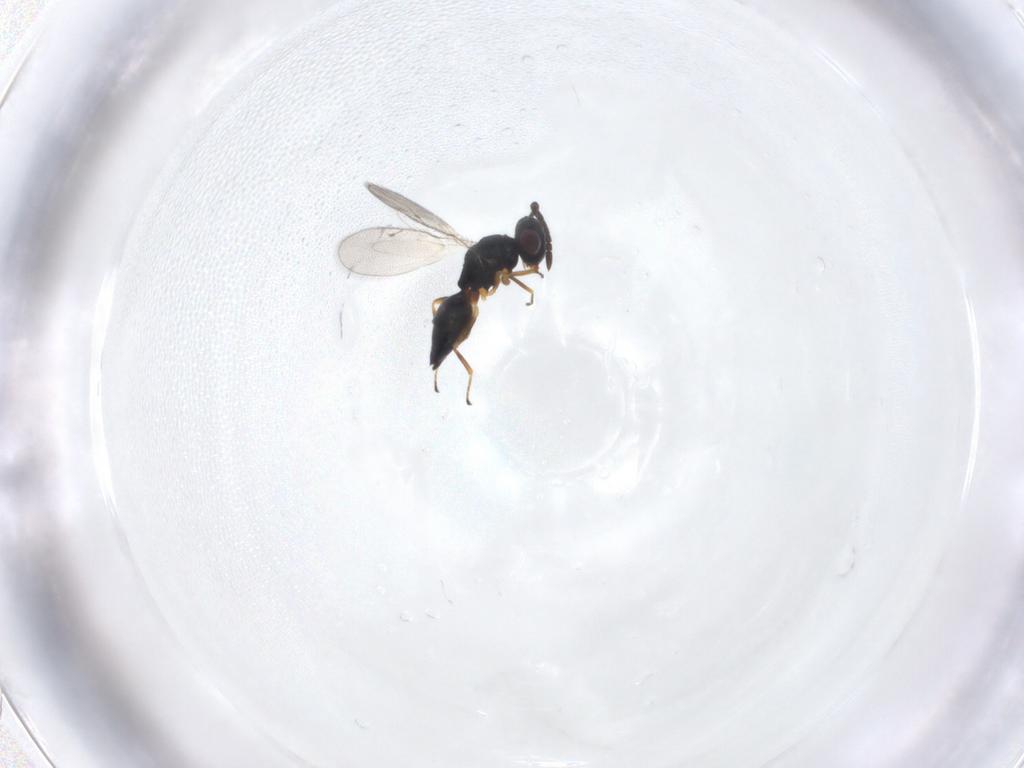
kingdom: Animalia
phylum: Arthropoda
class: Insecta
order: Hymenoptera
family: Pteromalidae
